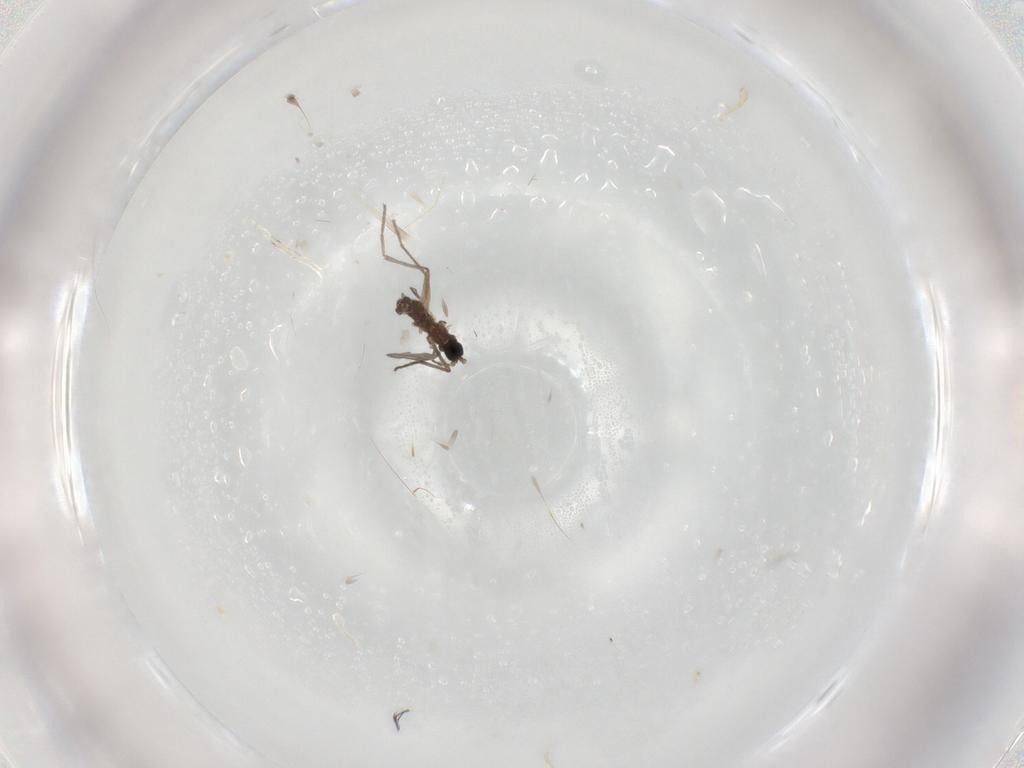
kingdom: Animalia
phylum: Arthropoda
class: Insecta
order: Diptera
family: Sciaridae
